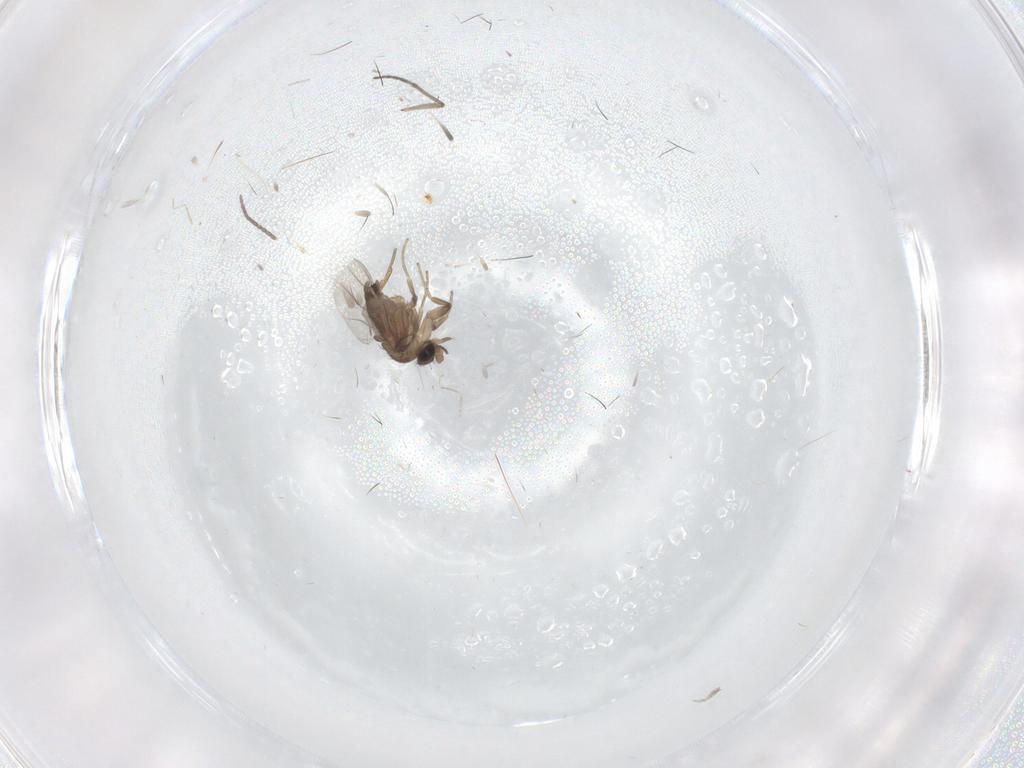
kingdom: Animalia
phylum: Arthropoda
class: Insecta
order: Diptera
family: Sciaridae
